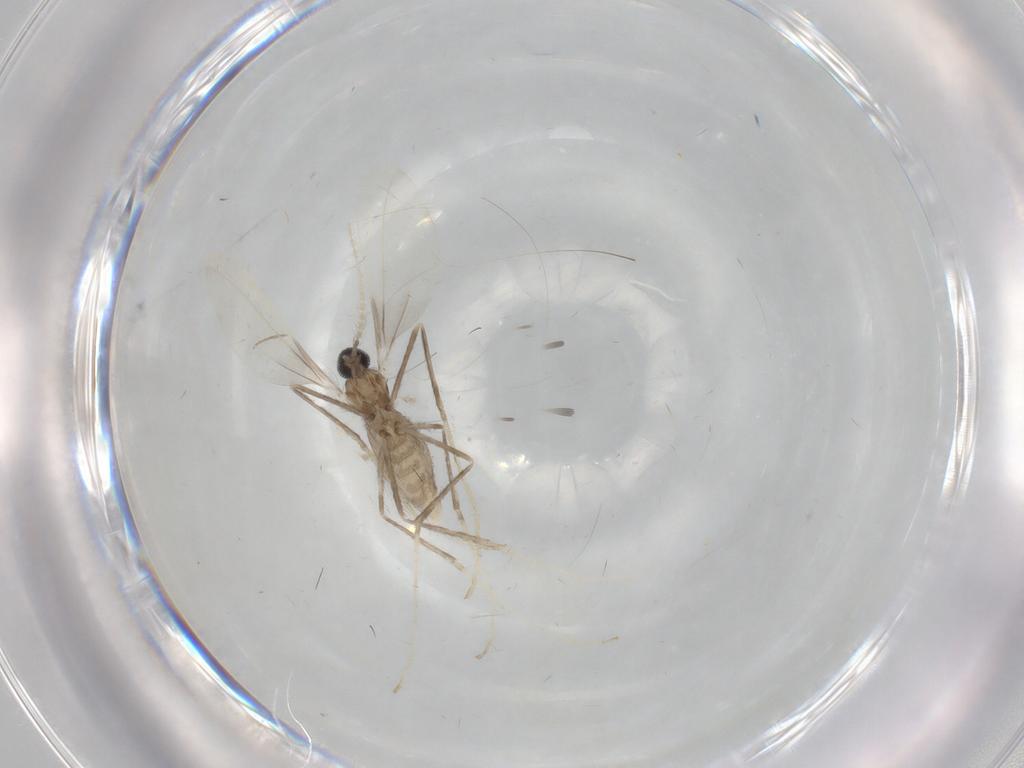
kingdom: Animalia
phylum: Arthropoda
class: Insecta
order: Diptera
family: Cecidomyiidae
